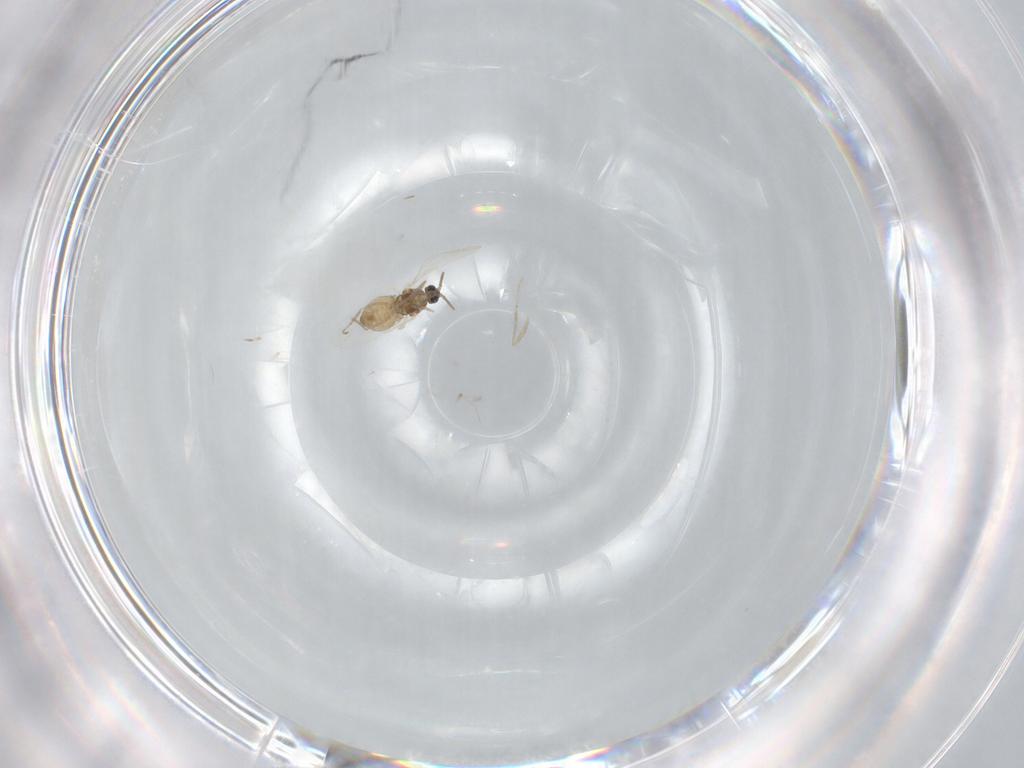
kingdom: Animalia
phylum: Arthropoda
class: Insecta
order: Diptera
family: Cecidomyiidae
